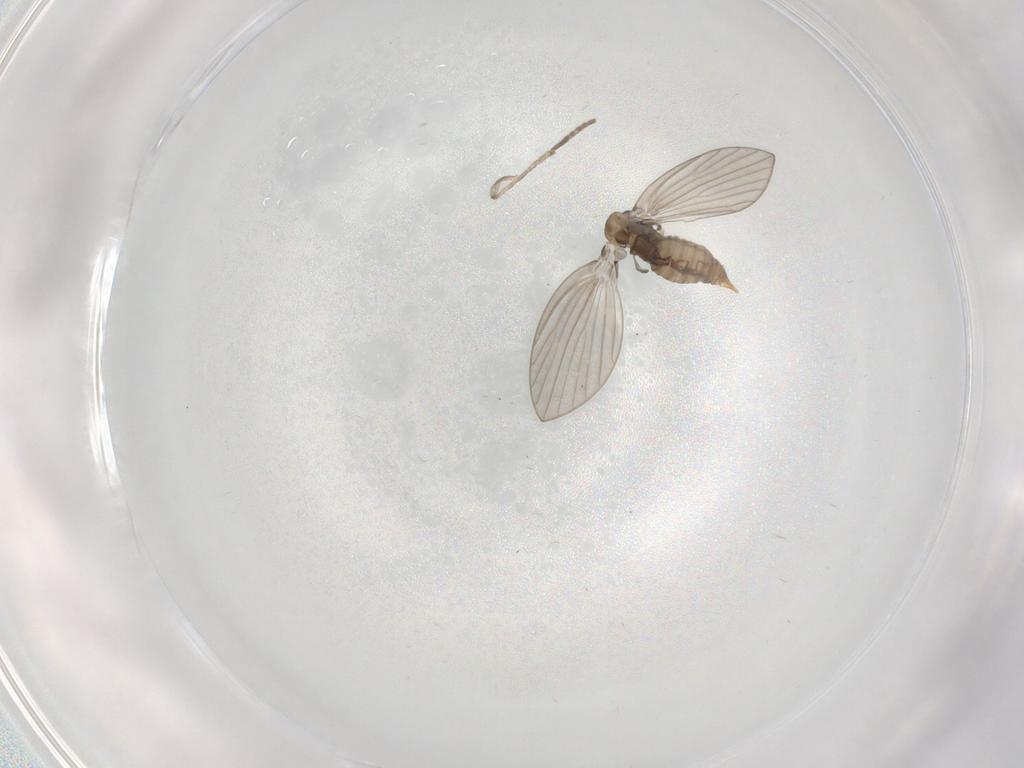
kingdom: Animalia
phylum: Arthropoda
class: Insecta
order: Diptera
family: Psychodidae
